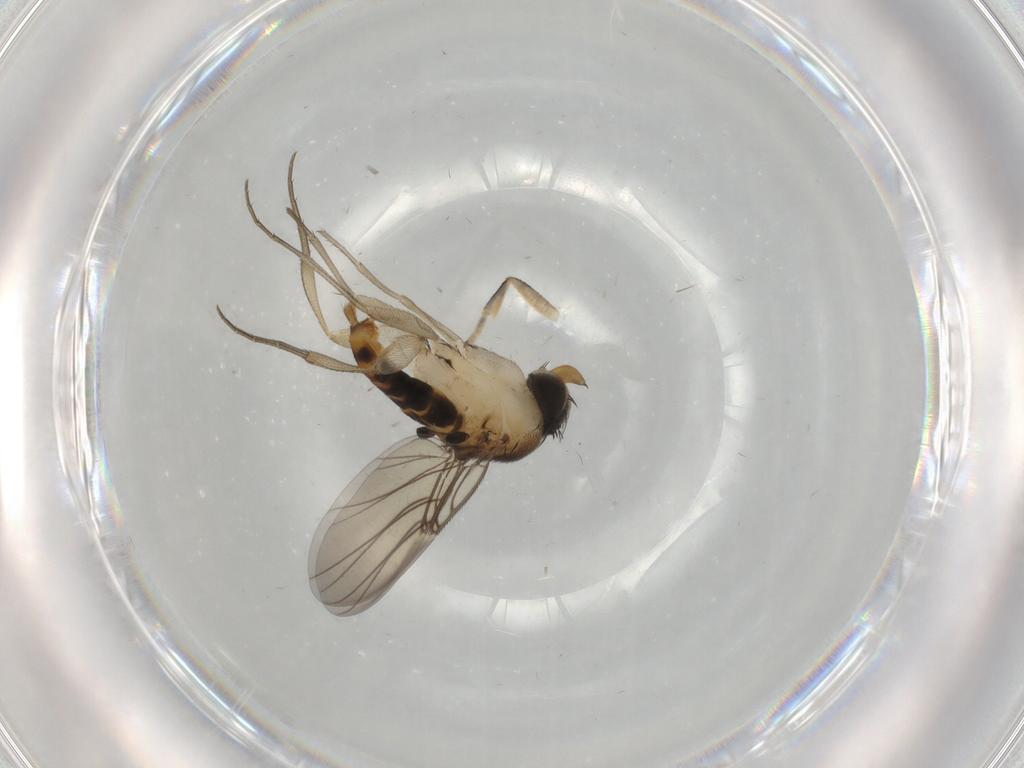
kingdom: Animalia
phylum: Arthropoda
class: Insecta
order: Diptera
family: Phoridae
